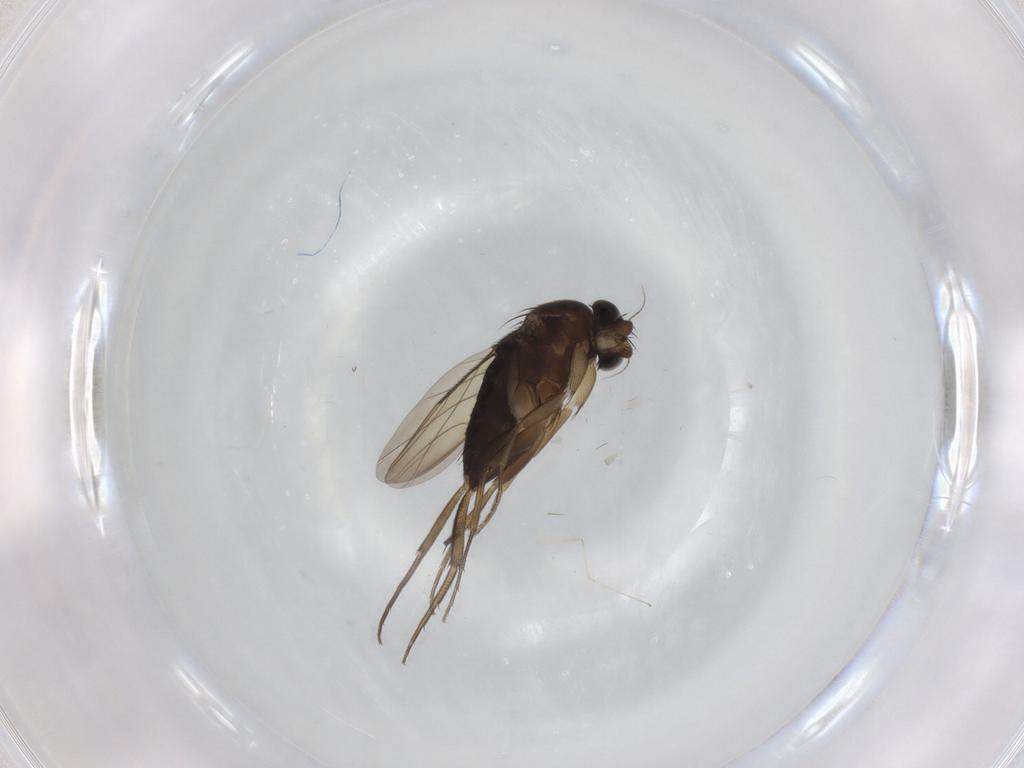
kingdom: Animalia
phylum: Arthropoda
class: Insecta
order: Diptera
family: Phoridae
